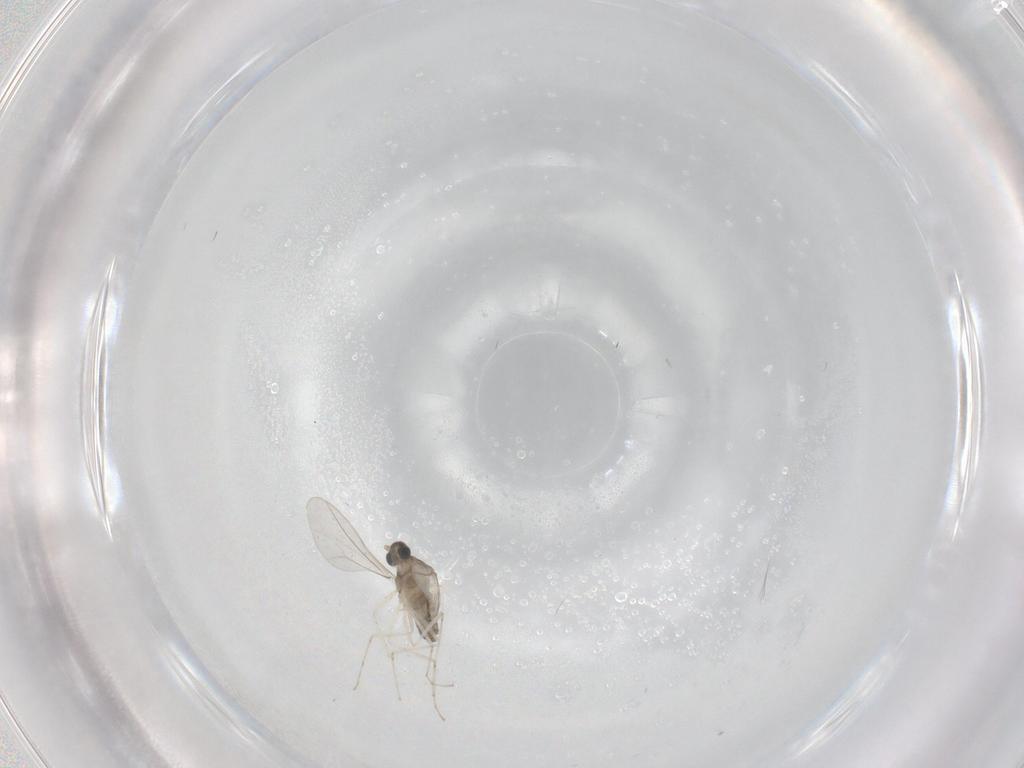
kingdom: Animalia
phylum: Arthropoda
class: Insecta
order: Diptera
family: Cecidomyiidae
